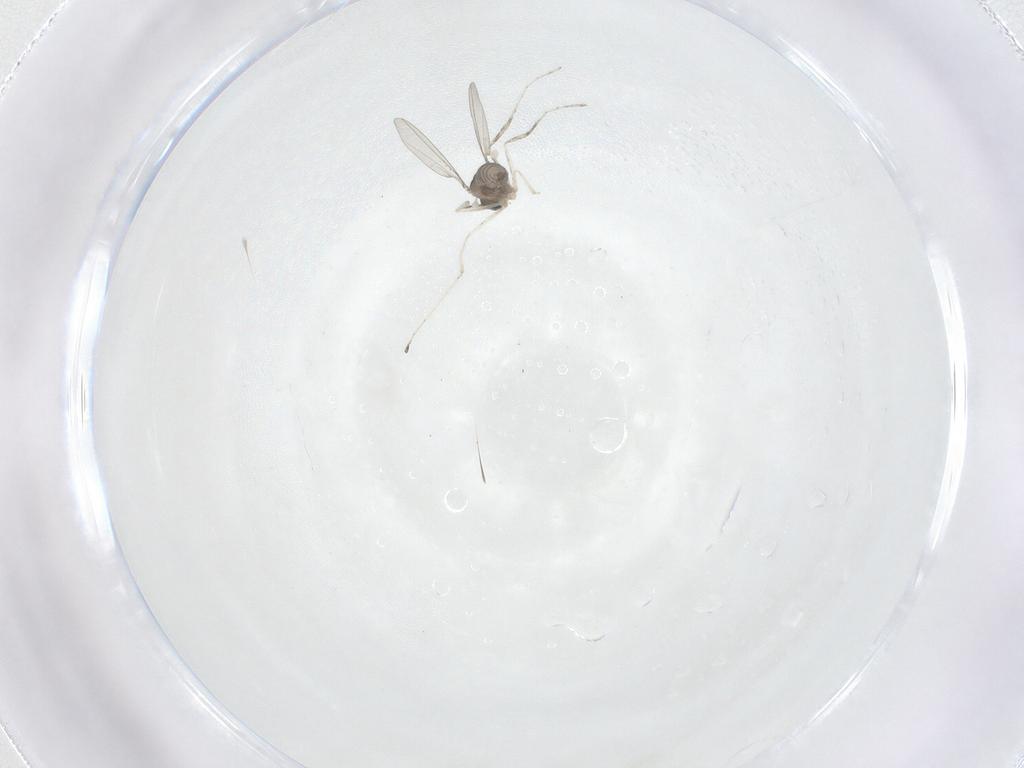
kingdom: Animalia
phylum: Arthropoda
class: Insecta
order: Diptera
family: Cecidomyiidae
